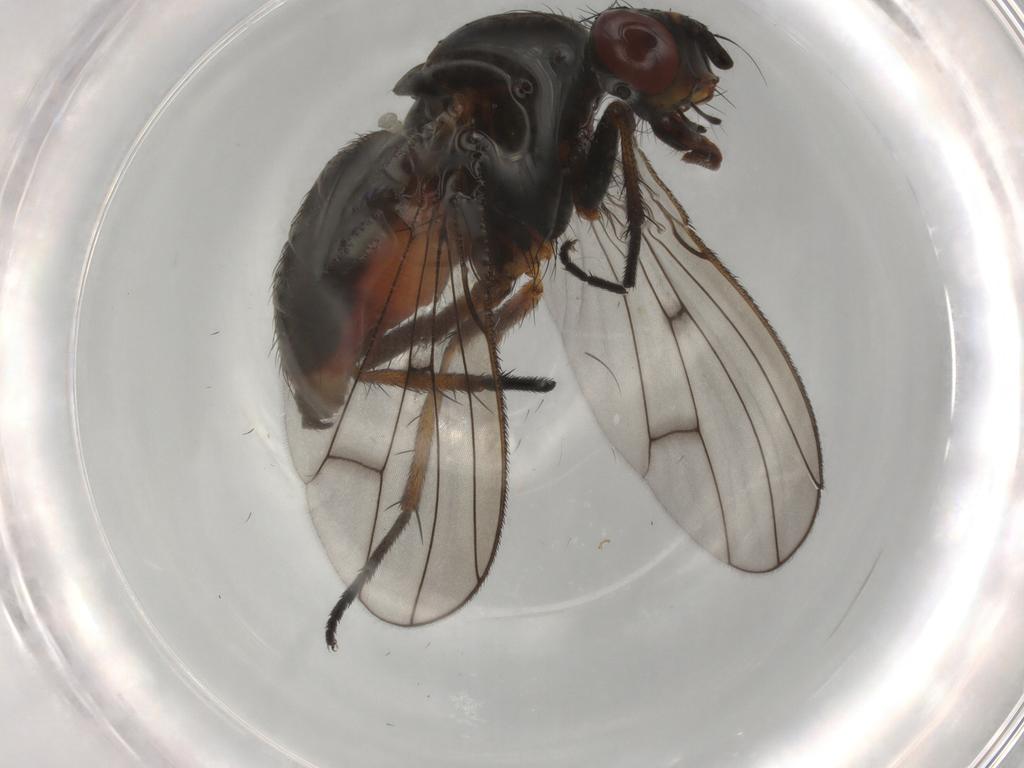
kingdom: Animalia
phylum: Arthropoda
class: Insecta
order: Diptera
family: Anthomyiidae
